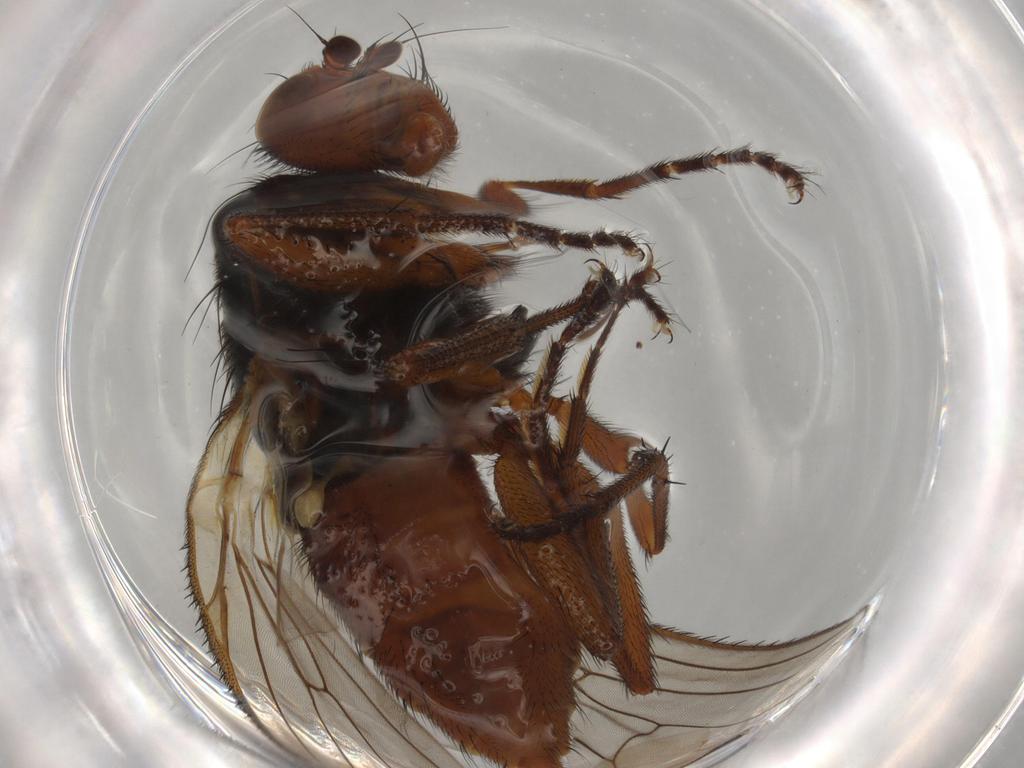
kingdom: Animalia
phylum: Arthropoda
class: Insecta
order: Diptera
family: Heleomyzidae
